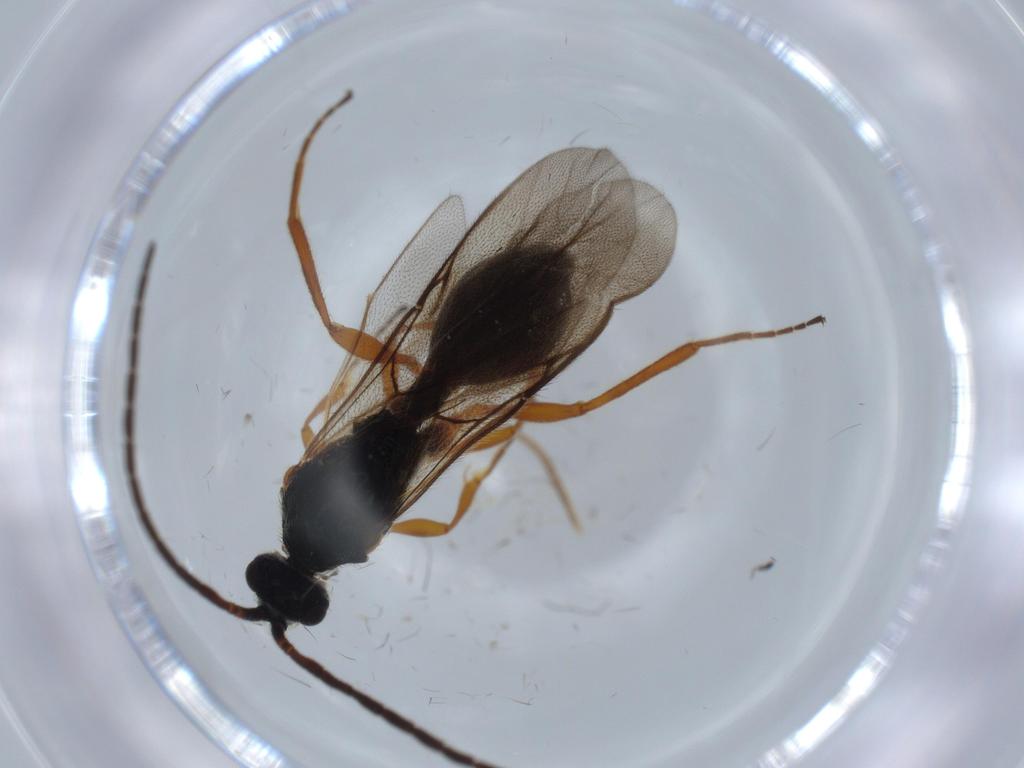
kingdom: Animalia
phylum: Arthropoda
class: Insecta
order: Hymenoptera
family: Diapriidae
